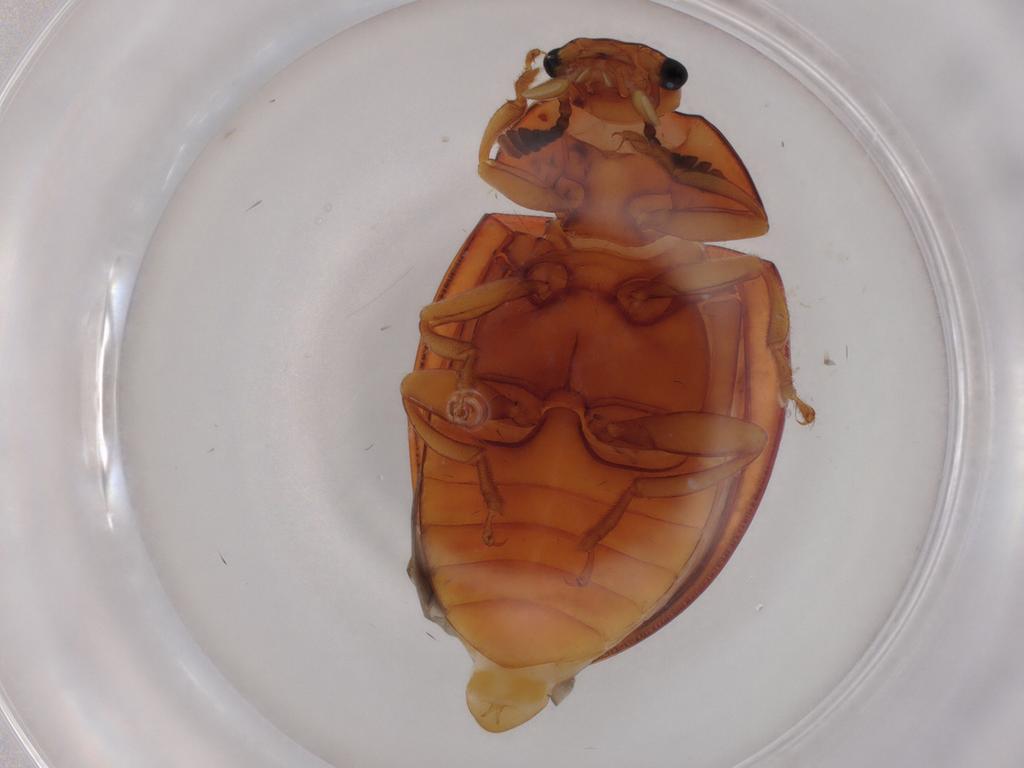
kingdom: Animalia
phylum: Arthropoda
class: Insecta
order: Coleoptera
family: Erotylidae
